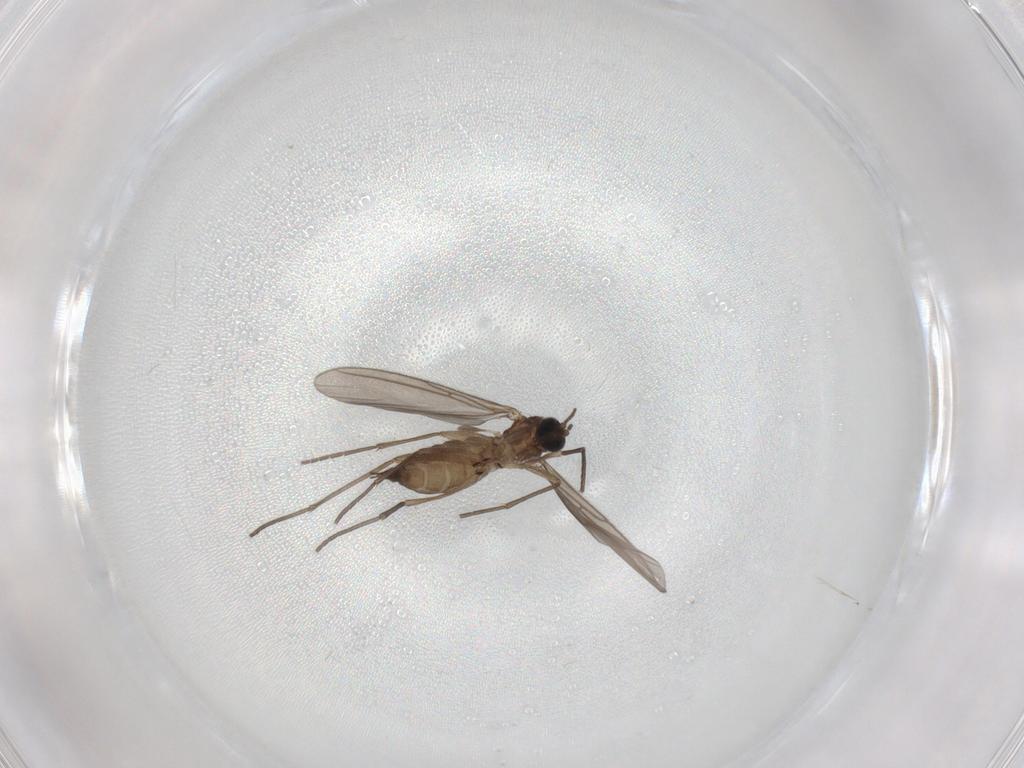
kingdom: Animalia
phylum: Arthropoda
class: Insecta
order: Diptera
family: Sciaridae
